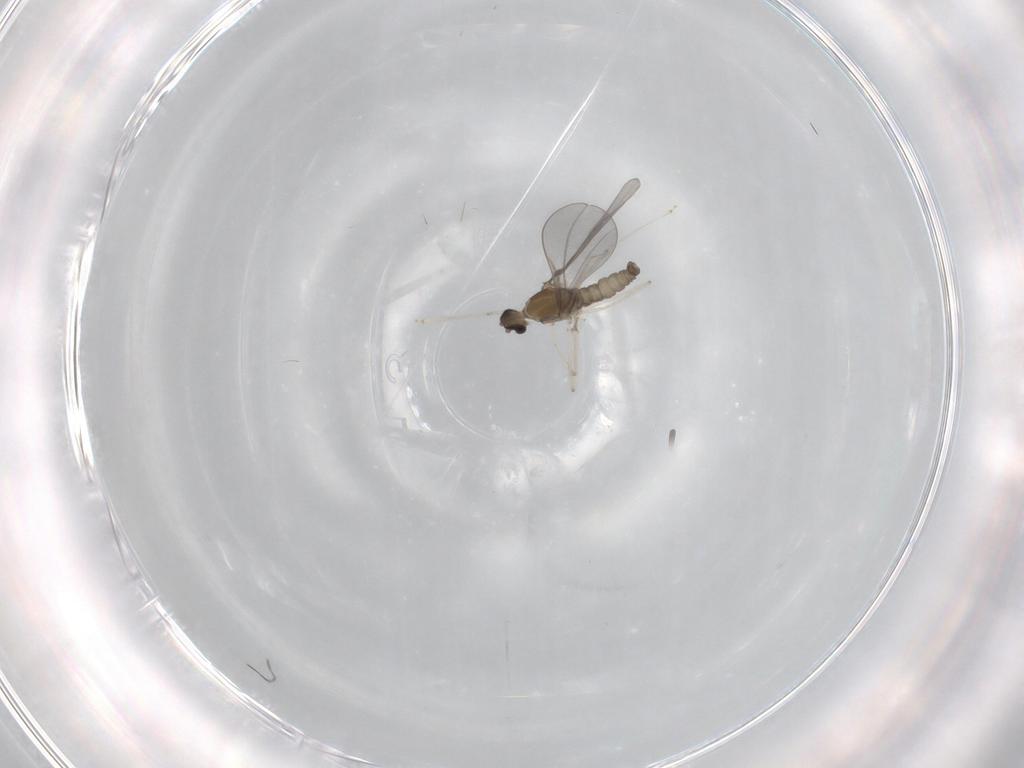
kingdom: Animalia
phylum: Arthropoda
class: Insecta
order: Diptera
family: Cecidomyiidae
